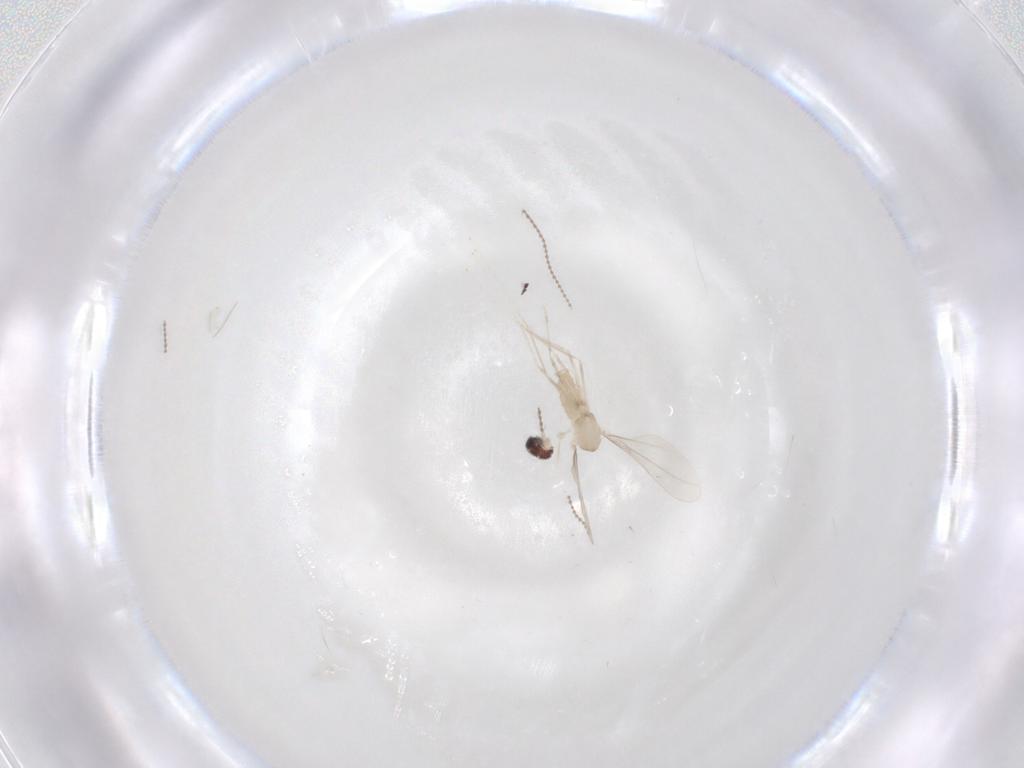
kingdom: Animalia
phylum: Arthropoda
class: Insecta
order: Diptera
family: Cecidomyiidae
